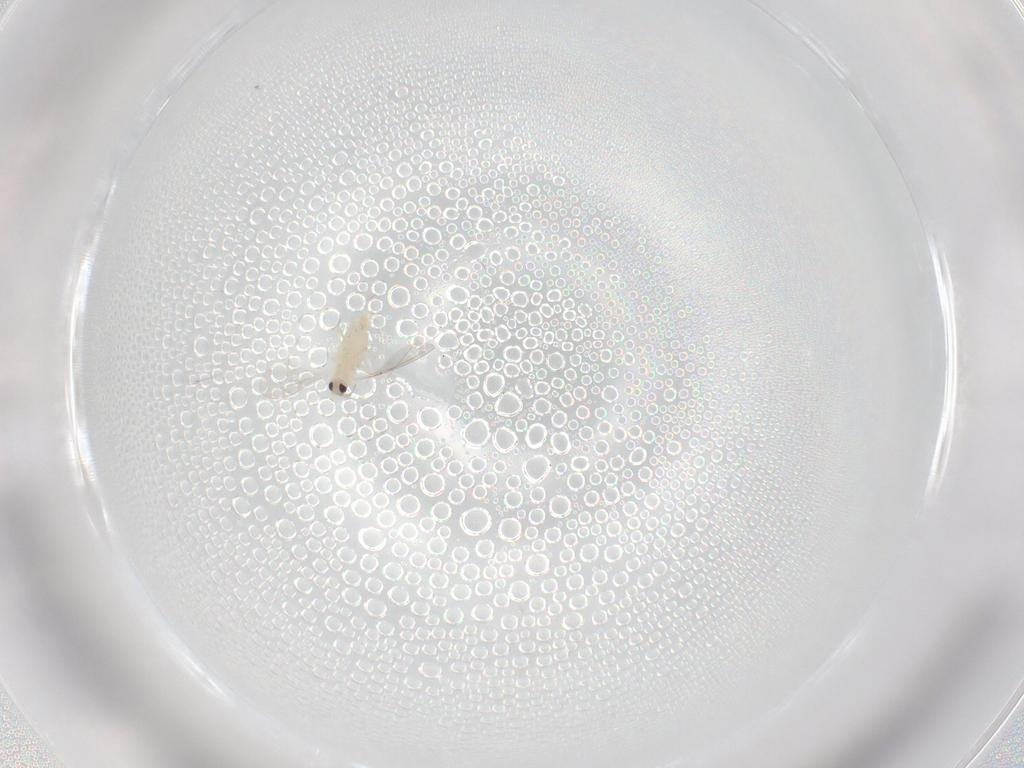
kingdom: Animalia
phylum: Arthropoda
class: Insecta
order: Diptera
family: Cecidomyiidae
